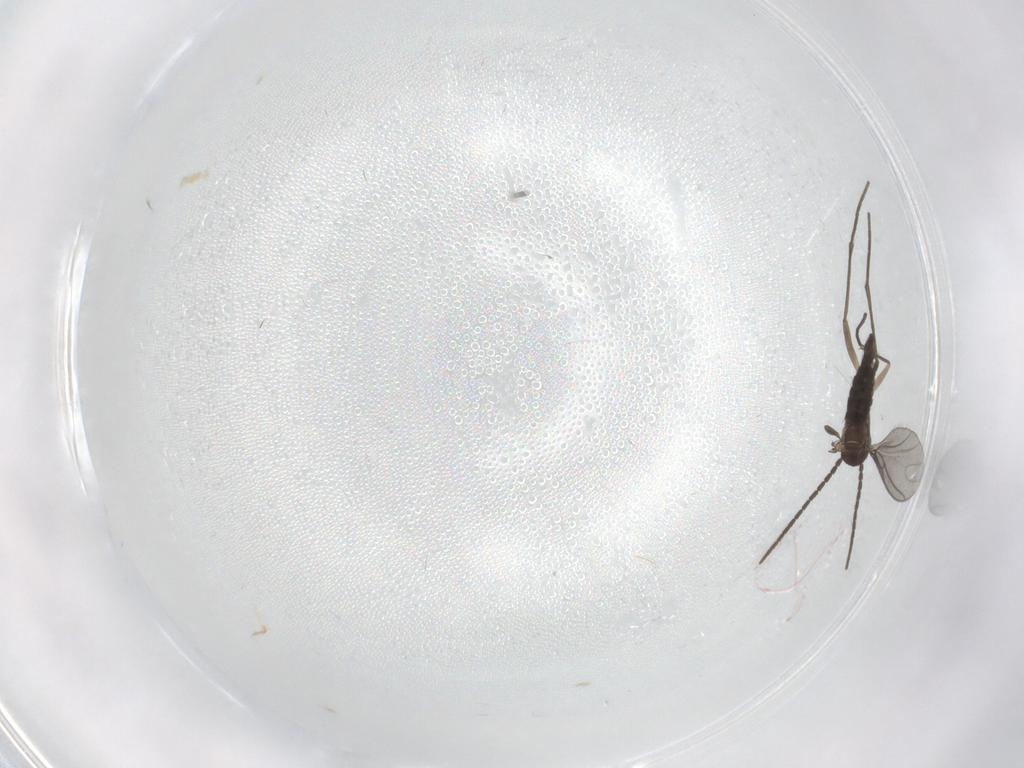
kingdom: Animalia
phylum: Arthropoda
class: Insecta
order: Diptera
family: Sciaridae
